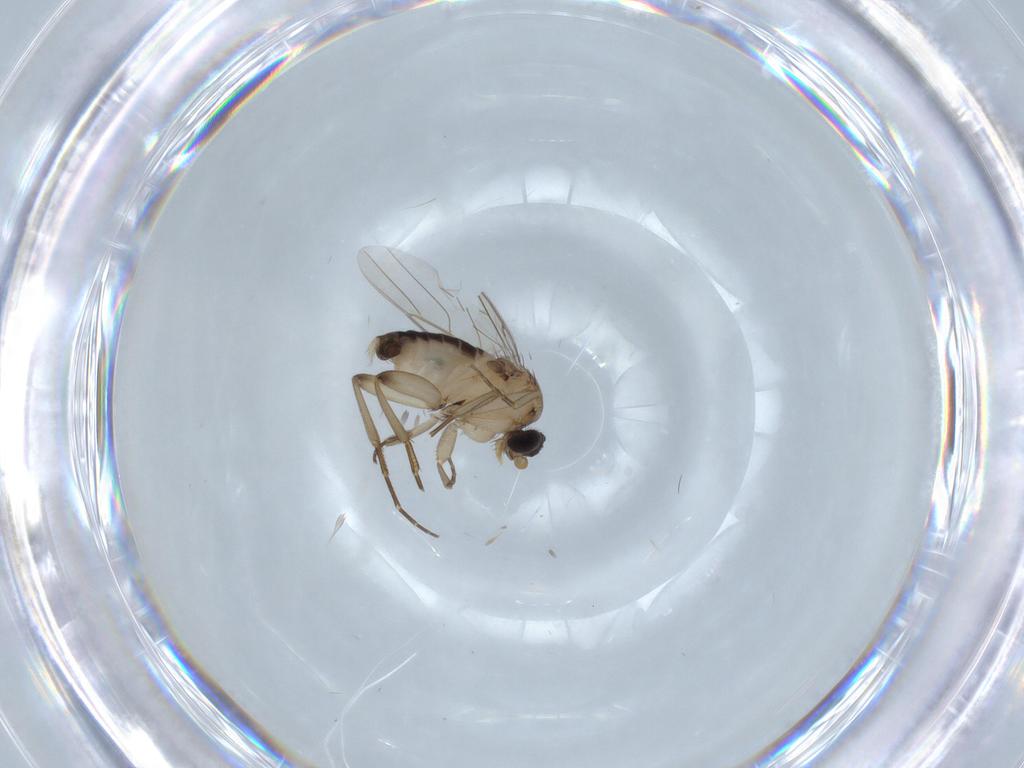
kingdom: Animalia
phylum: Arthropoda
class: Insecta
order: Diptera
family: Phoridae
